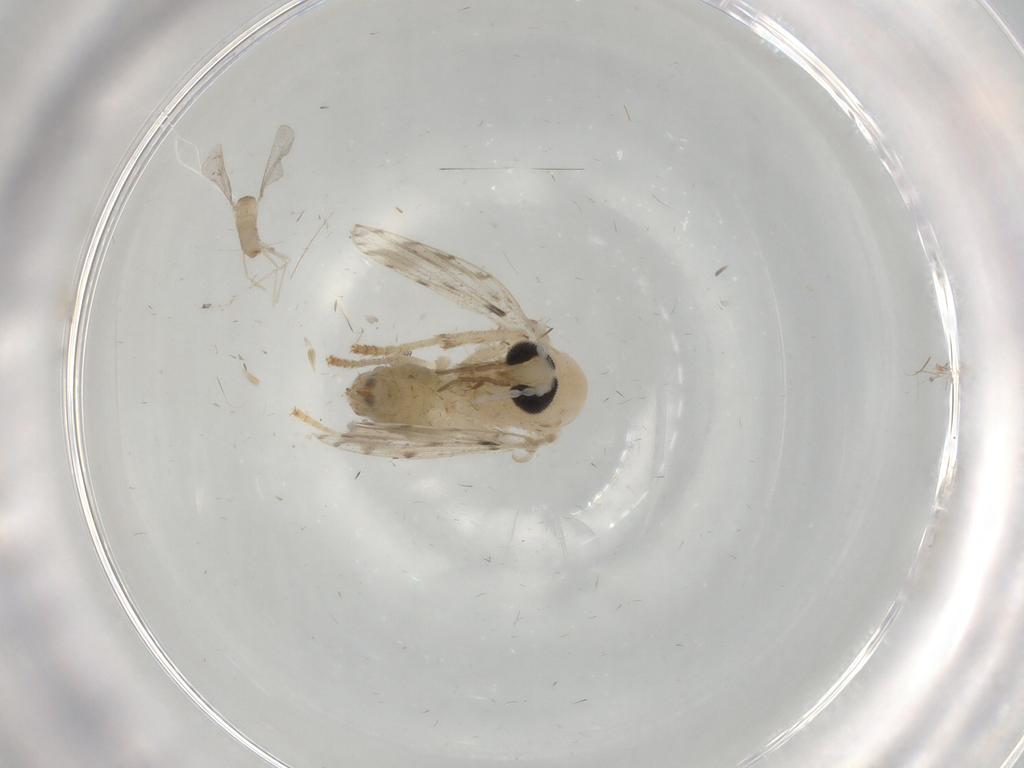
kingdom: Animalia
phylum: Arthropoda
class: Insecta
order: Diptera
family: Psychodidae
